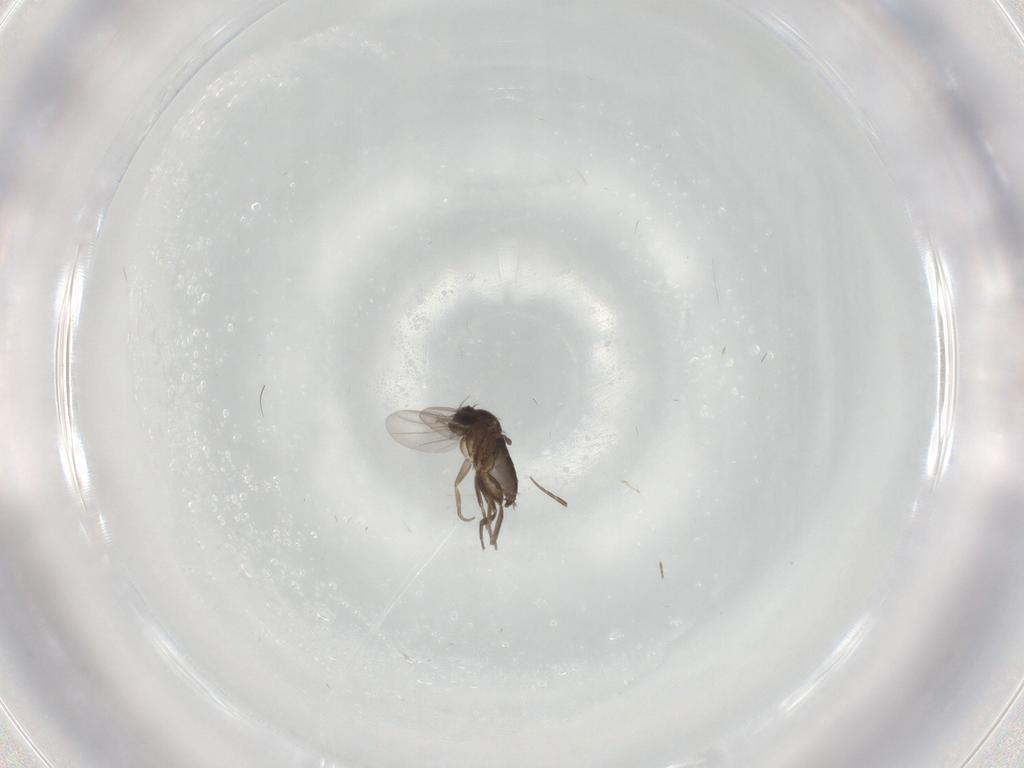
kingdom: Animalia
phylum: Arthropoda
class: Insecta
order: Diptera
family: Phoridae
